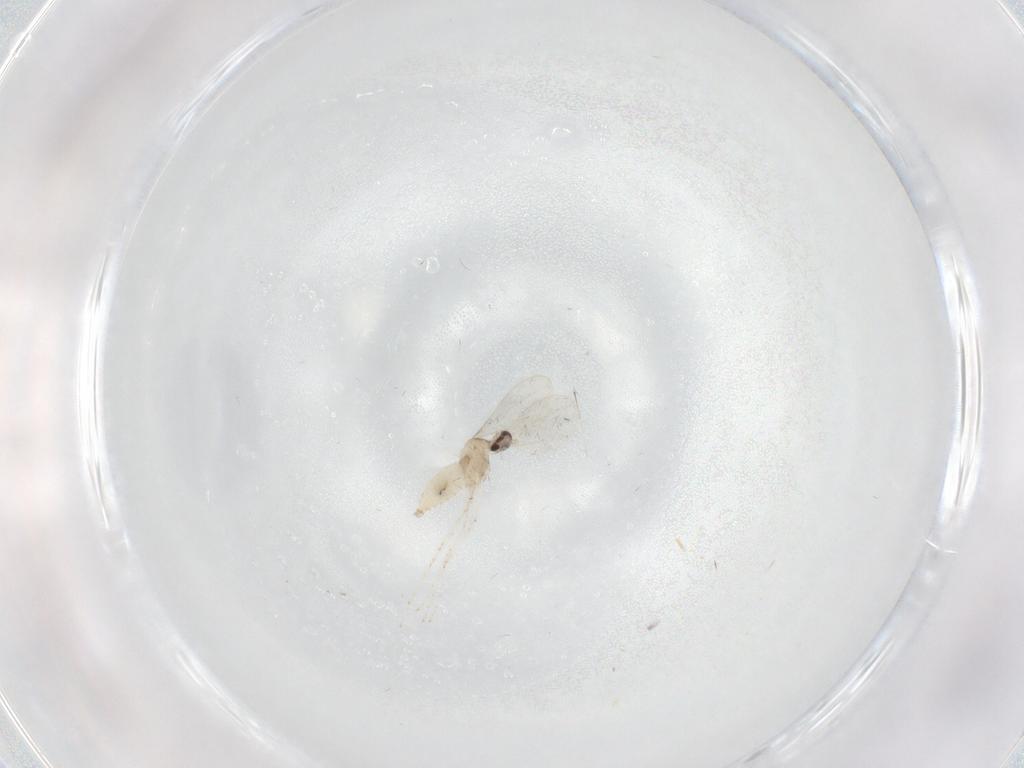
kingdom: Animalia
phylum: Arthropoda
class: Insecta
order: Diptera
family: Cecidomyiidae
